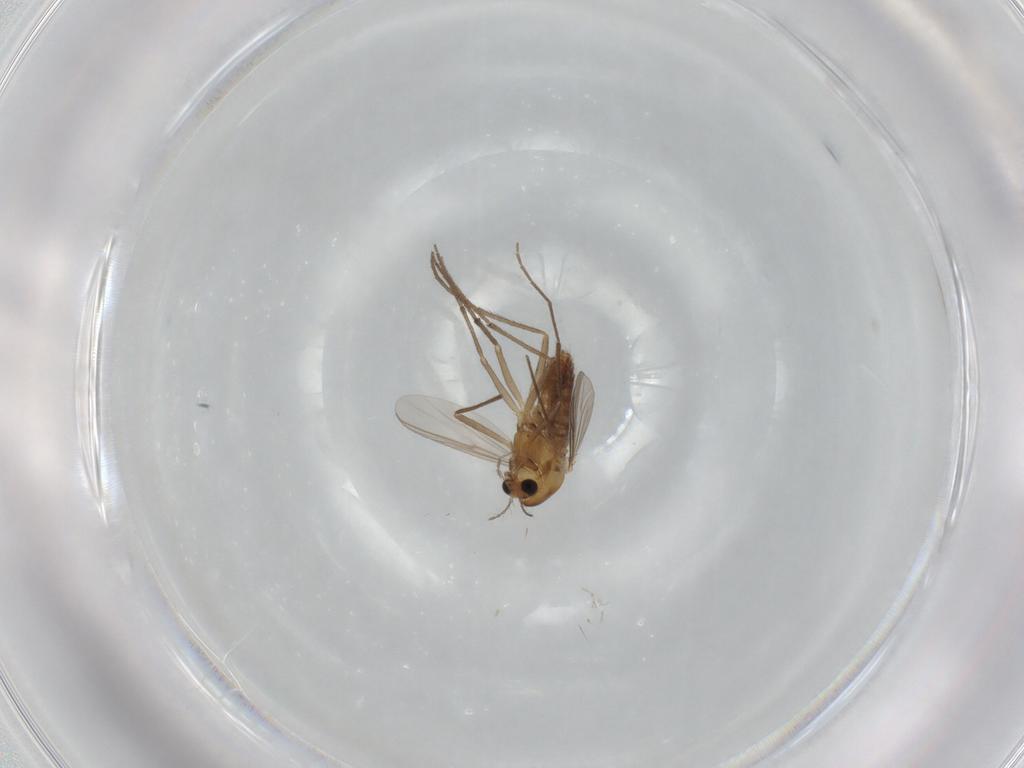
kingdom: Animalia
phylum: Arthropoda
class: Insecta
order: Diptera
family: Chironomidae
